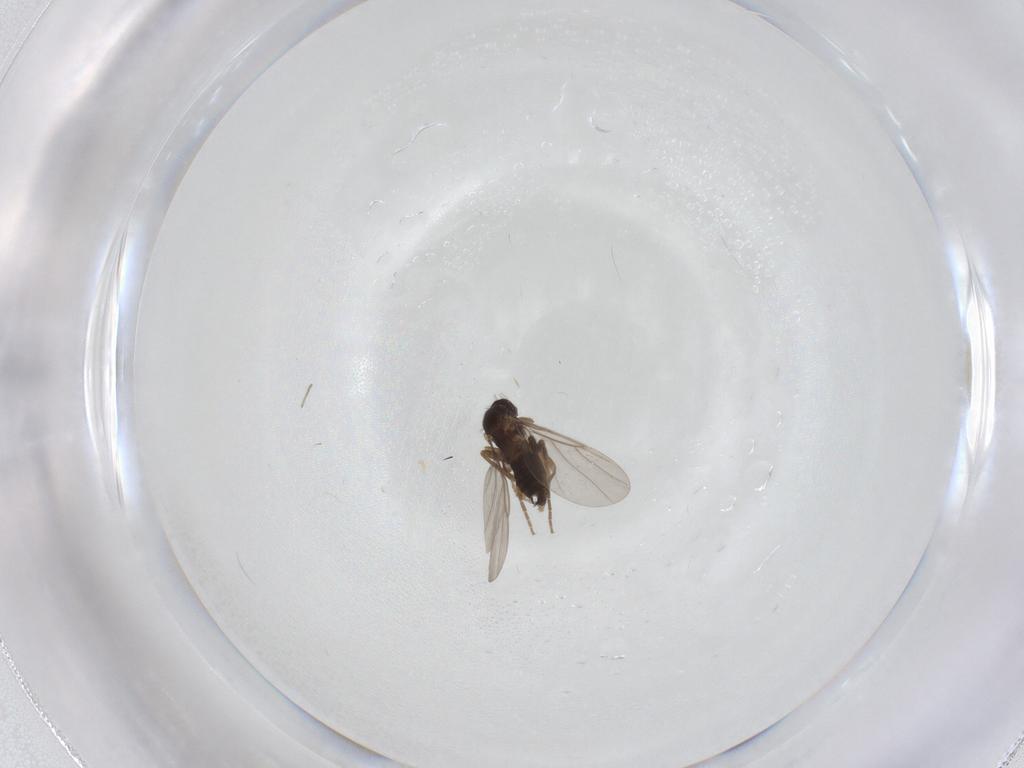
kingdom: Animalia
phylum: Arthropoda
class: Insecta
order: Diptera
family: Phoridae
